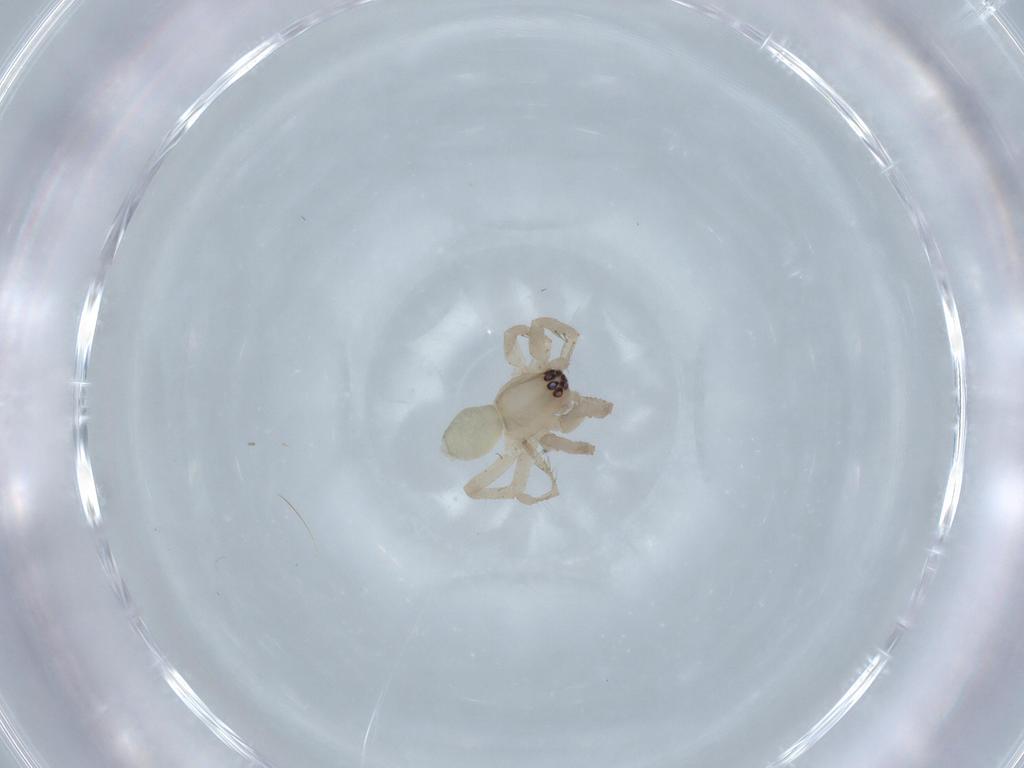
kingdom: Animalia
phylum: Arthropoda
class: Arachnida
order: Araneae
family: Anyphaenidae
